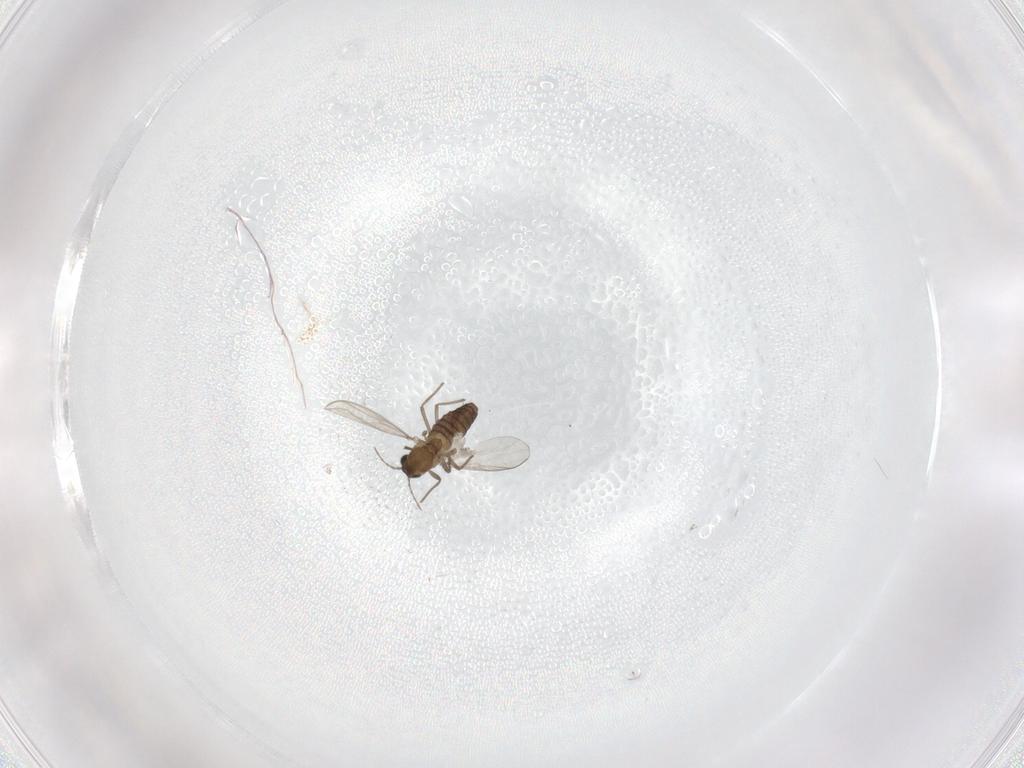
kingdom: Animalia
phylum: Arthropoda
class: Insecta
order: Diptera
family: Chironomidae
